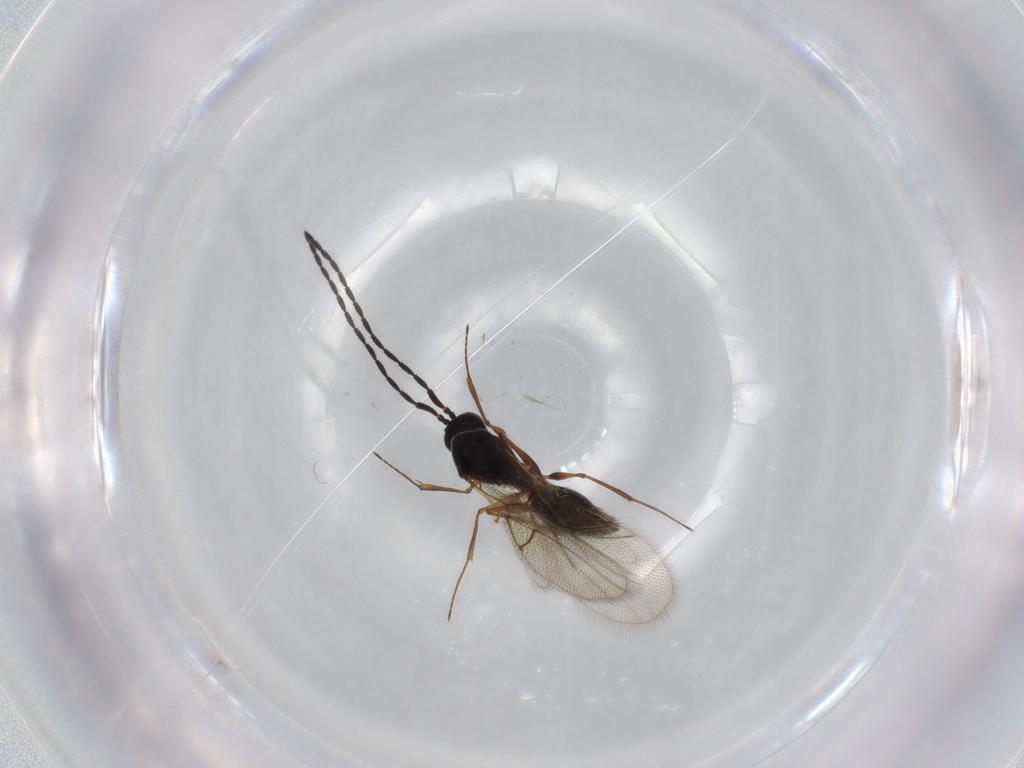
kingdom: Animalia
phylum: Arthropoda
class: Insecta
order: Hymenoptera
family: Figitidae
